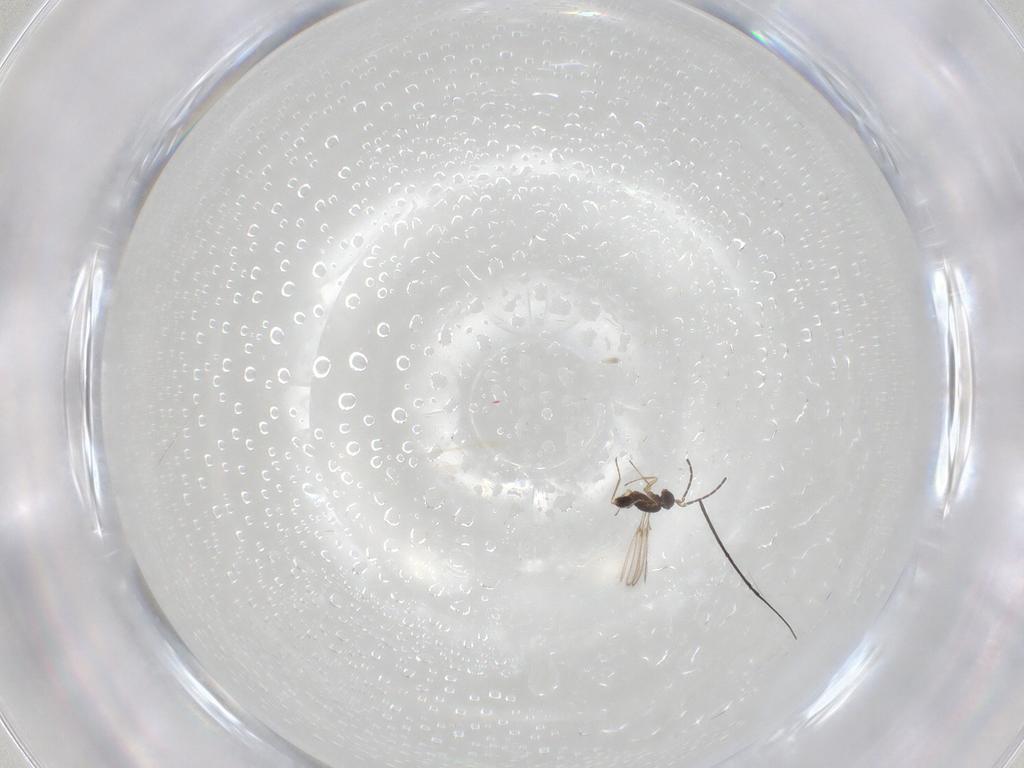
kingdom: Animalia
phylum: Arthropoda
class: Insecta
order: Hymenoptera
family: Mymaridae
